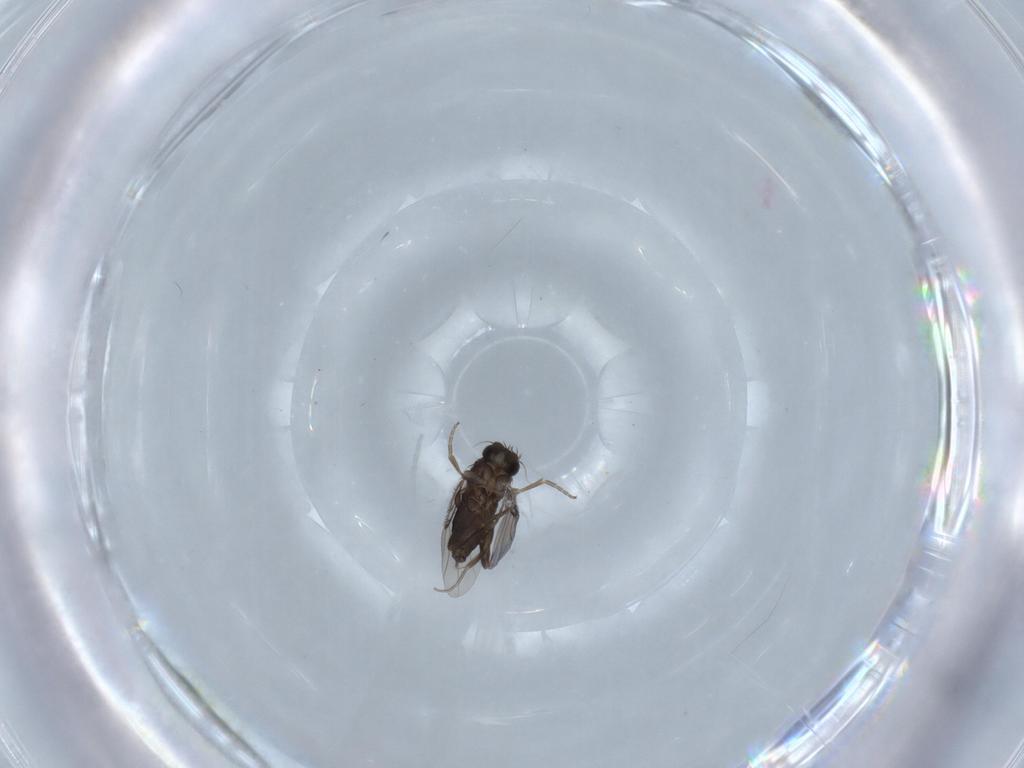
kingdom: Animalia
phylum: Arthropoda
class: Insecta
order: Diptera
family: Phoridae
